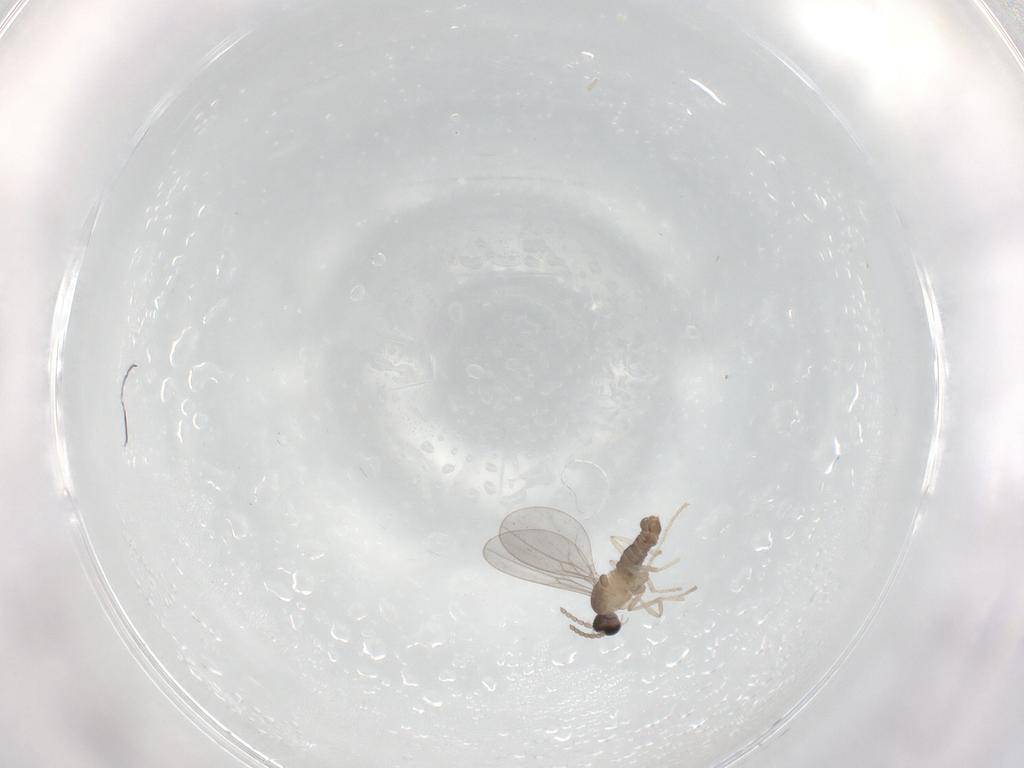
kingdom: Animalia
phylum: Arthropoda
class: Insecta
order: Diptera
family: Cecidomyiidae
